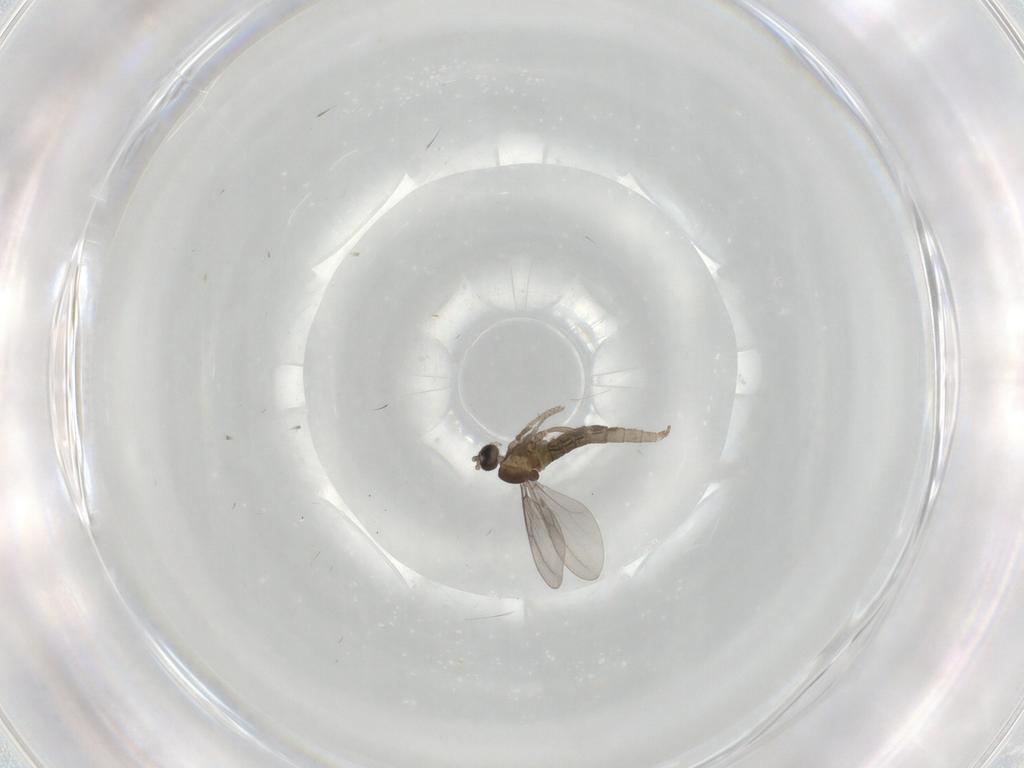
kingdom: Animalia
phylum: Arthropoda
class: Insecta
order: Diptera
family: Cecidomyiidae
